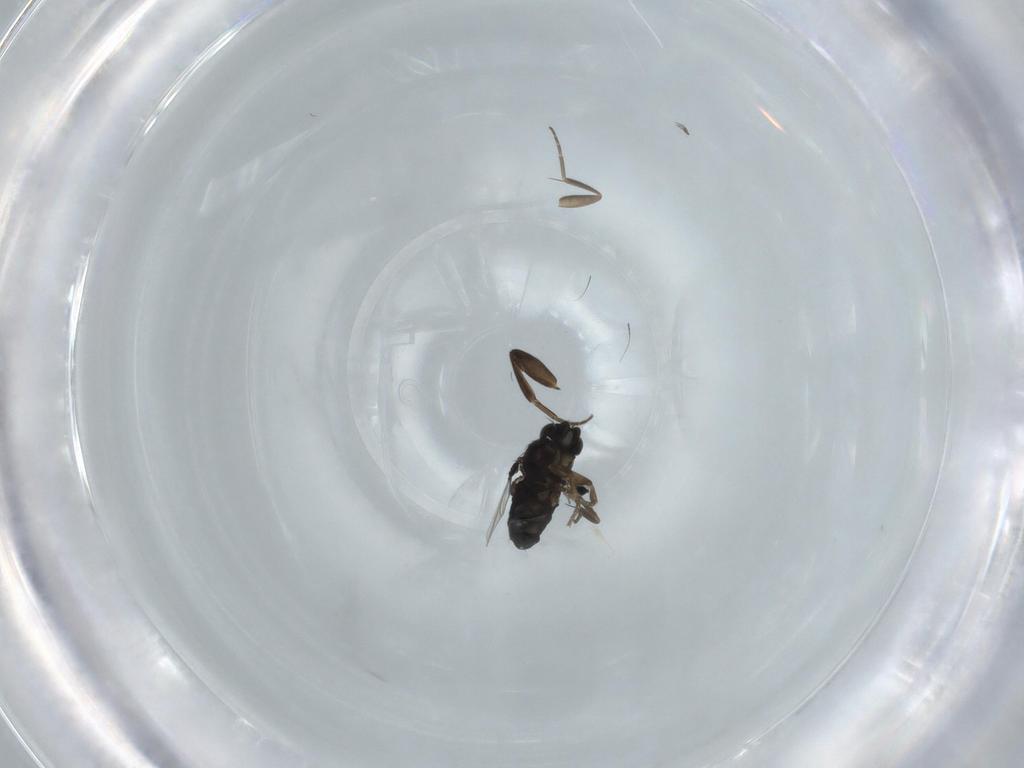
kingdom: Animalia
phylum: Arthropoda
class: Insecta
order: Diptera
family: Phoridae
